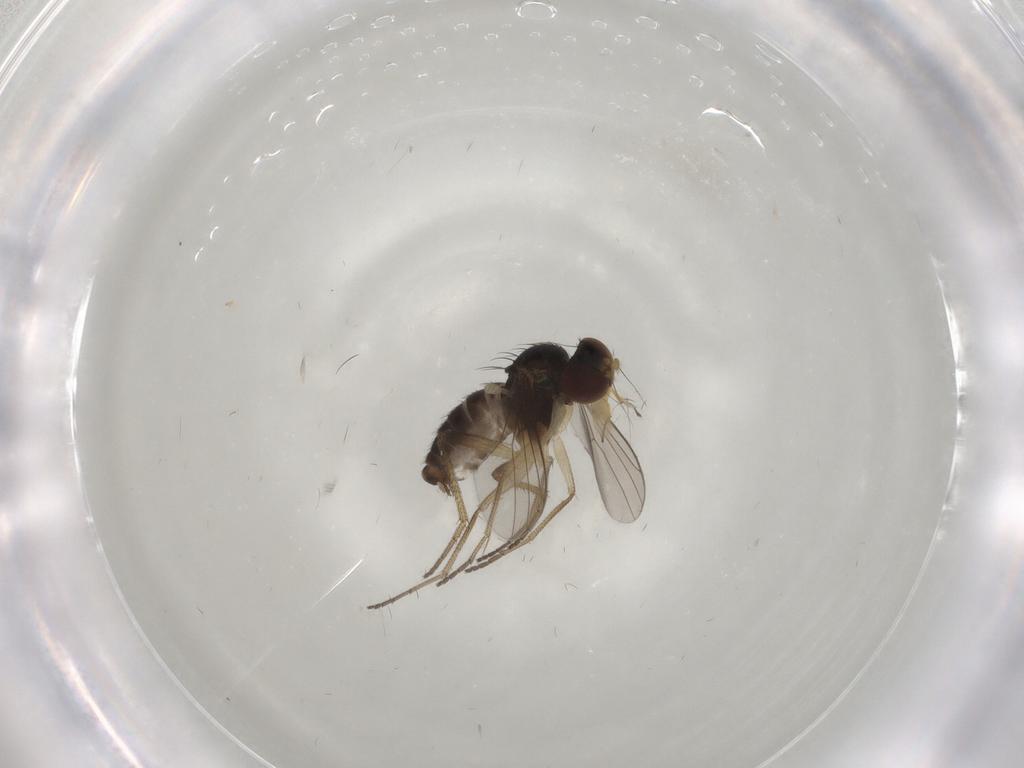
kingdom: Animalia
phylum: Arthropoda
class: Insecta
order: Diptera
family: Dolichopodidae
